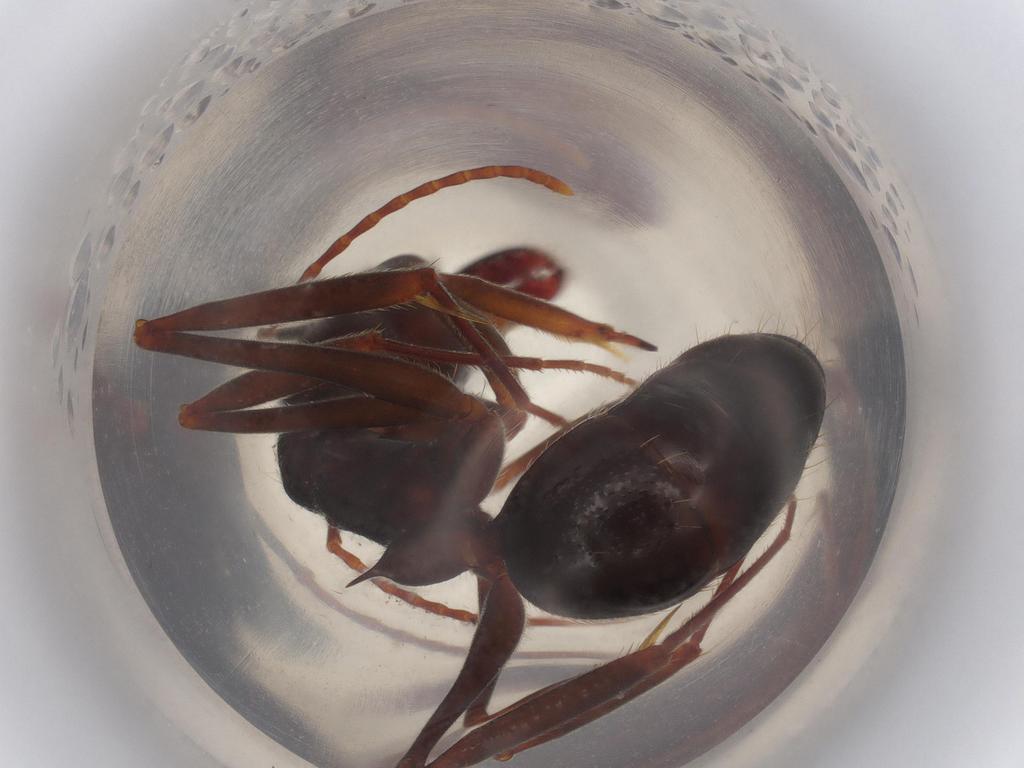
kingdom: Animalia
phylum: Arthropoda
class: Insecta
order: Hymenoptera
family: Formicidae
